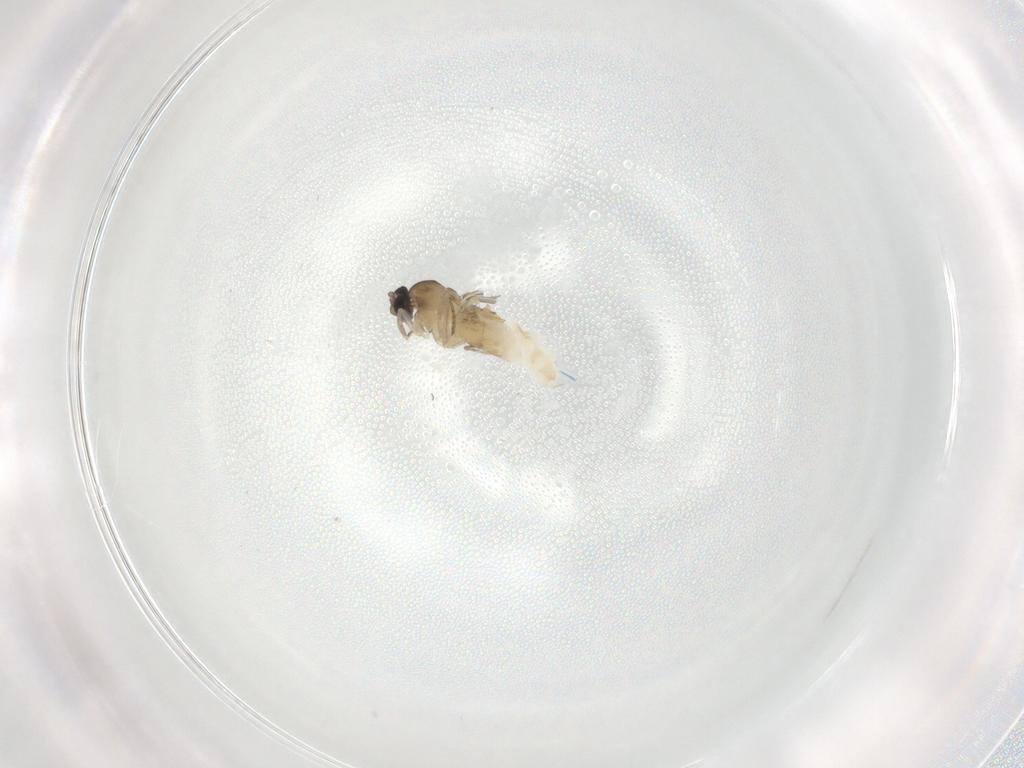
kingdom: Animalia
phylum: Arthropoda
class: Insecta
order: Diptera
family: Cecidomyiidae
